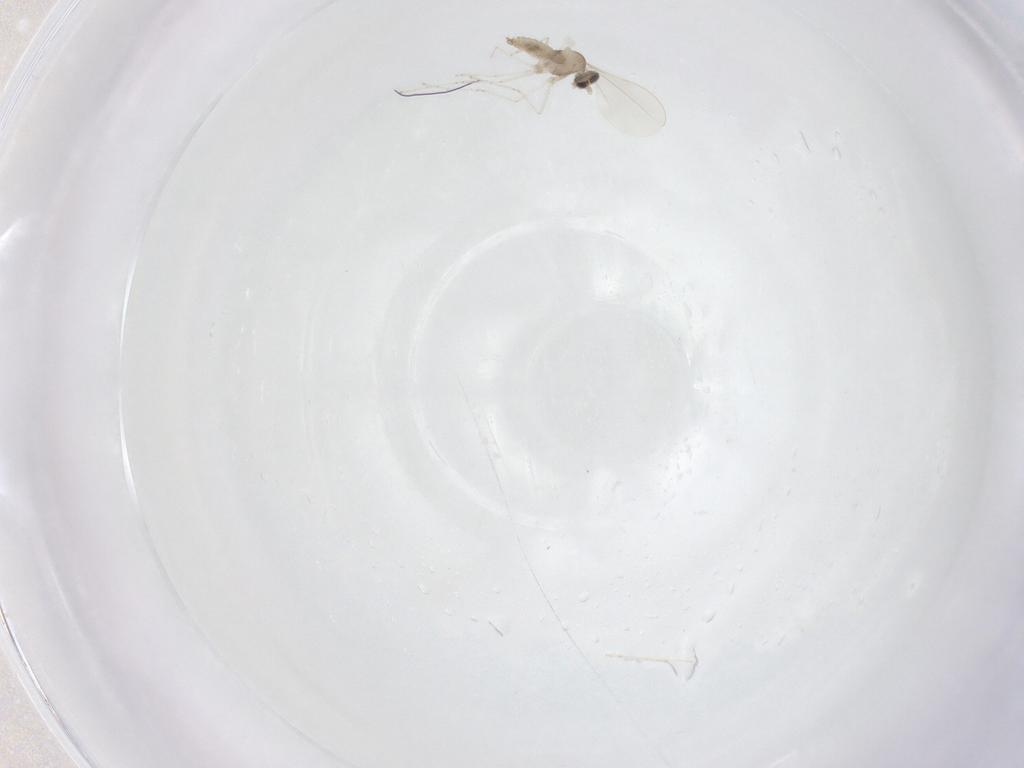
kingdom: Animalia
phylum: Arthropoda
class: Insecta
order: Diptera
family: Cecidomyiidae
